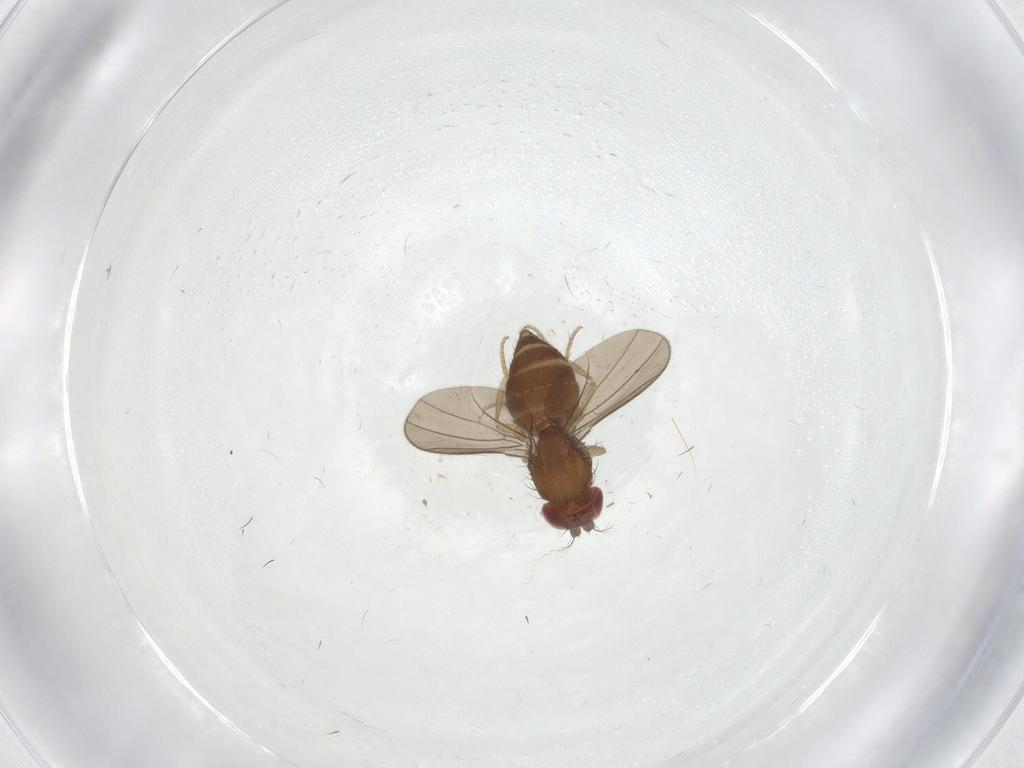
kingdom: Animalia
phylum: Arthropoda
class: Insecta
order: Diptera
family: Drosophilidae
